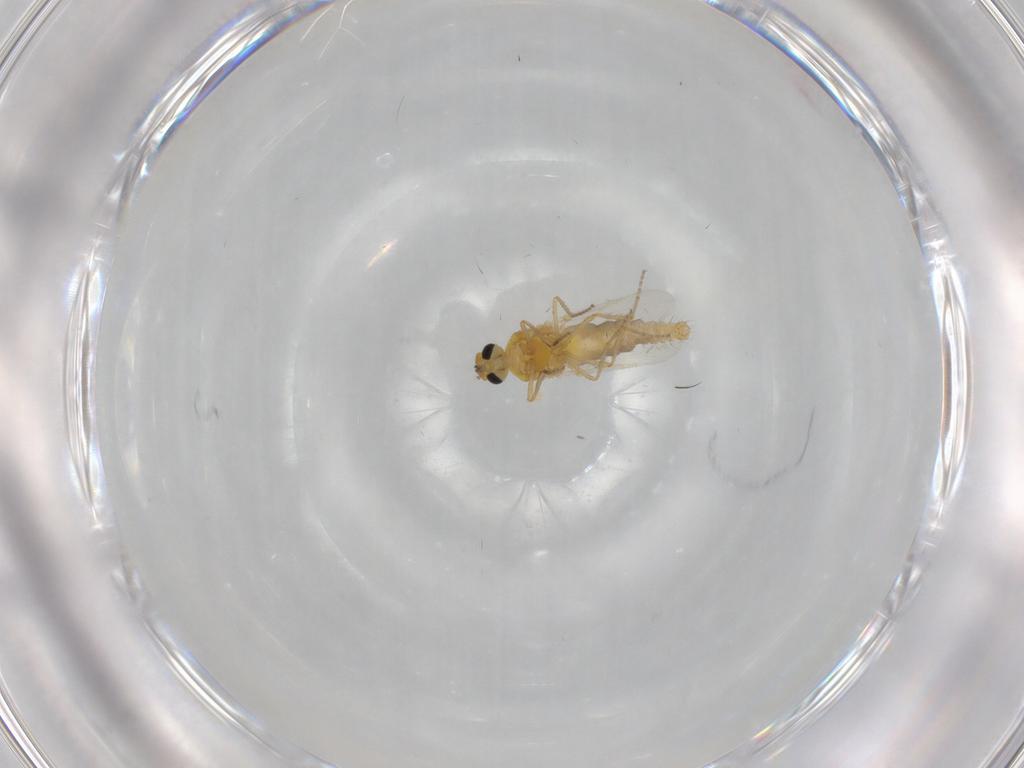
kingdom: Animalia
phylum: Arthropoda
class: Insecta
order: Diptera
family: Ceratopogonidae
